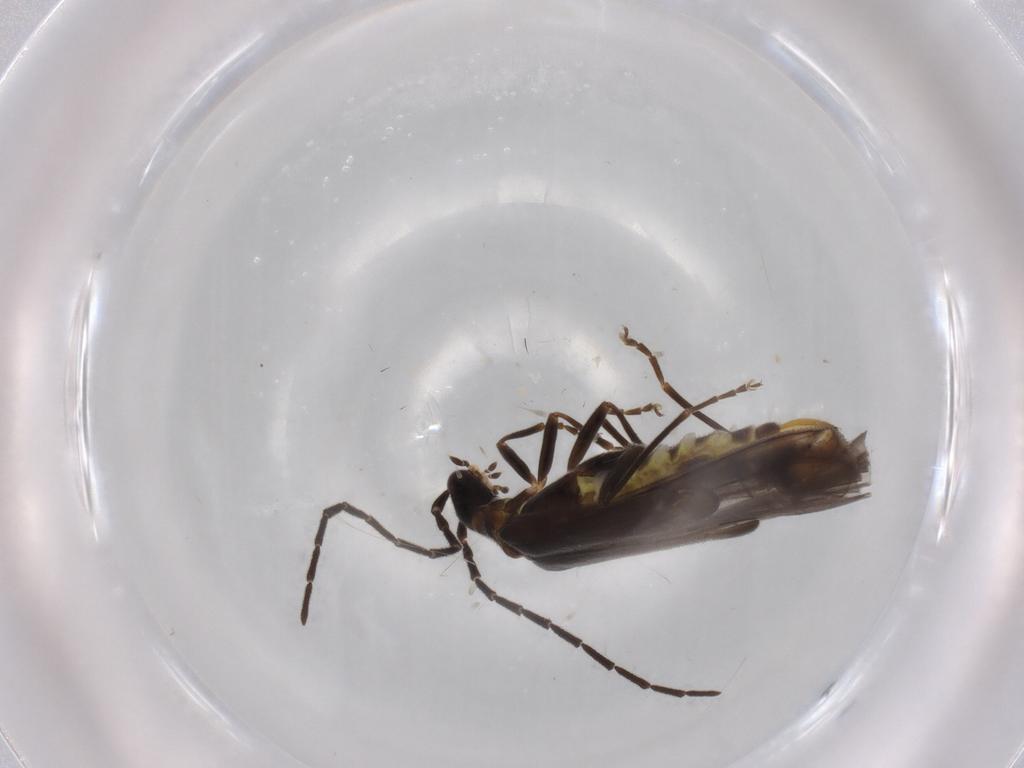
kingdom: Animalia
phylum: Arthropoda
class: Insecta
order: Coleoptera
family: Cantharidae
